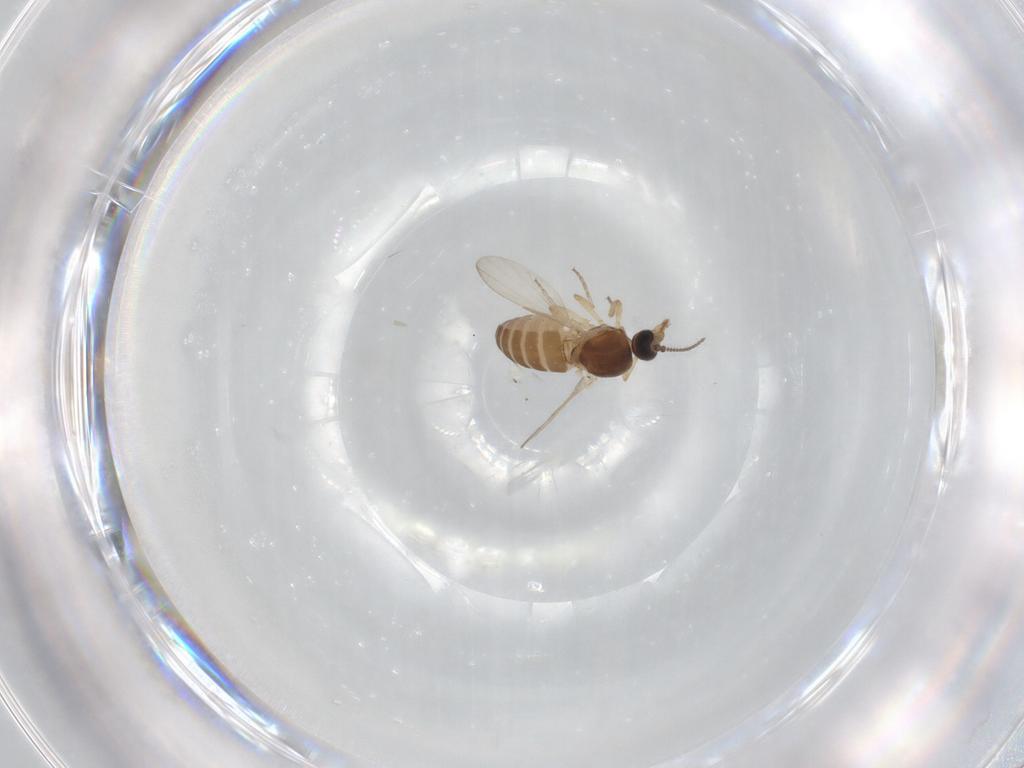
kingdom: Animalia
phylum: Arthropoda
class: Insecta
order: Diptera
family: Ceratopogonidae
